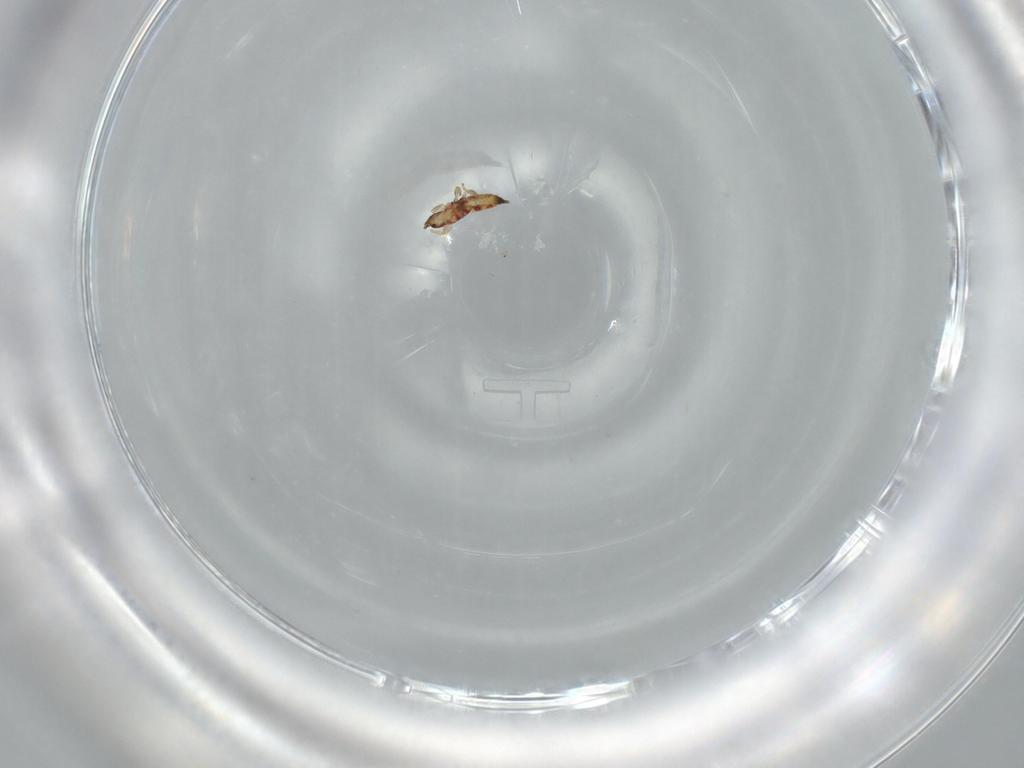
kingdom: Animalia
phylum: Arthropoda
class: Insecta
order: Thysanoptera
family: Phlaeothripidae
